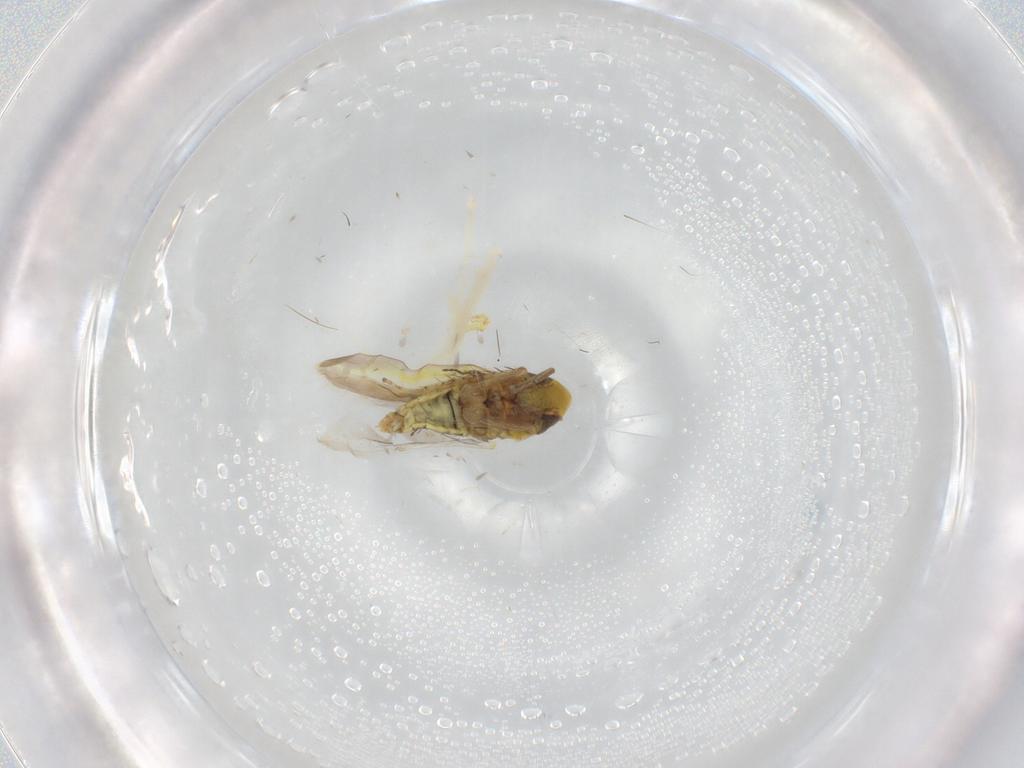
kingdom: Animalia
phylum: Arthropoda
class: Insecta
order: Hemiptera
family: Cicadellidae
